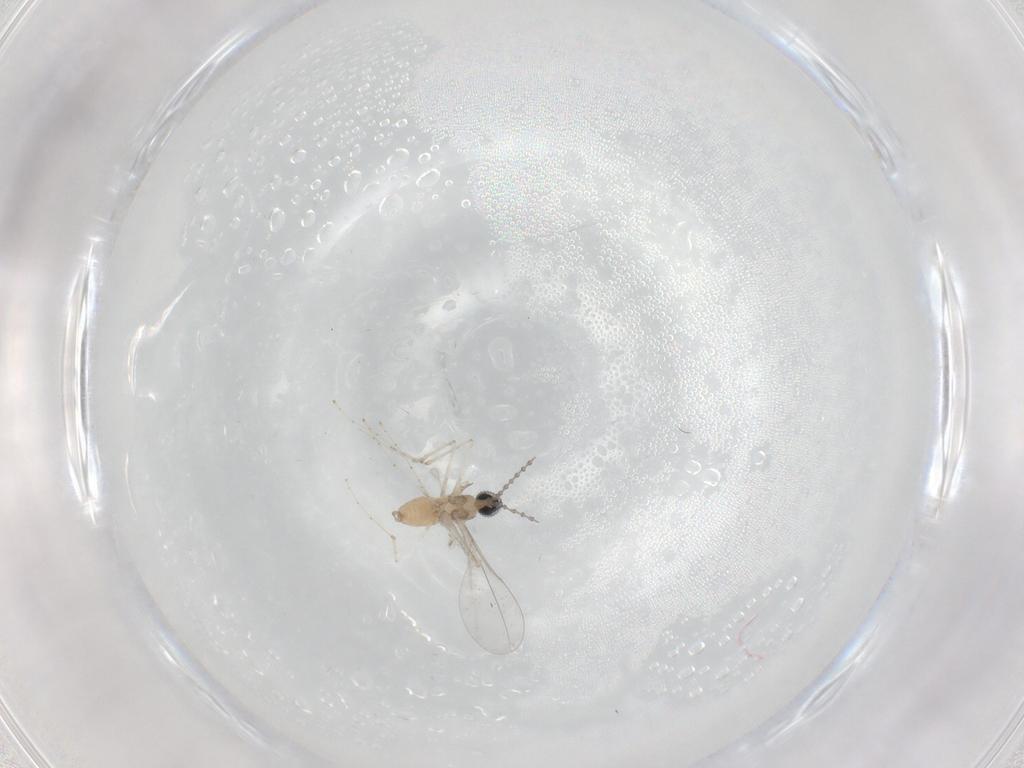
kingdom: Animalia
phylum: Arthropoda
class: Insecta
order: Diptera
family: Cecidomyiidae
